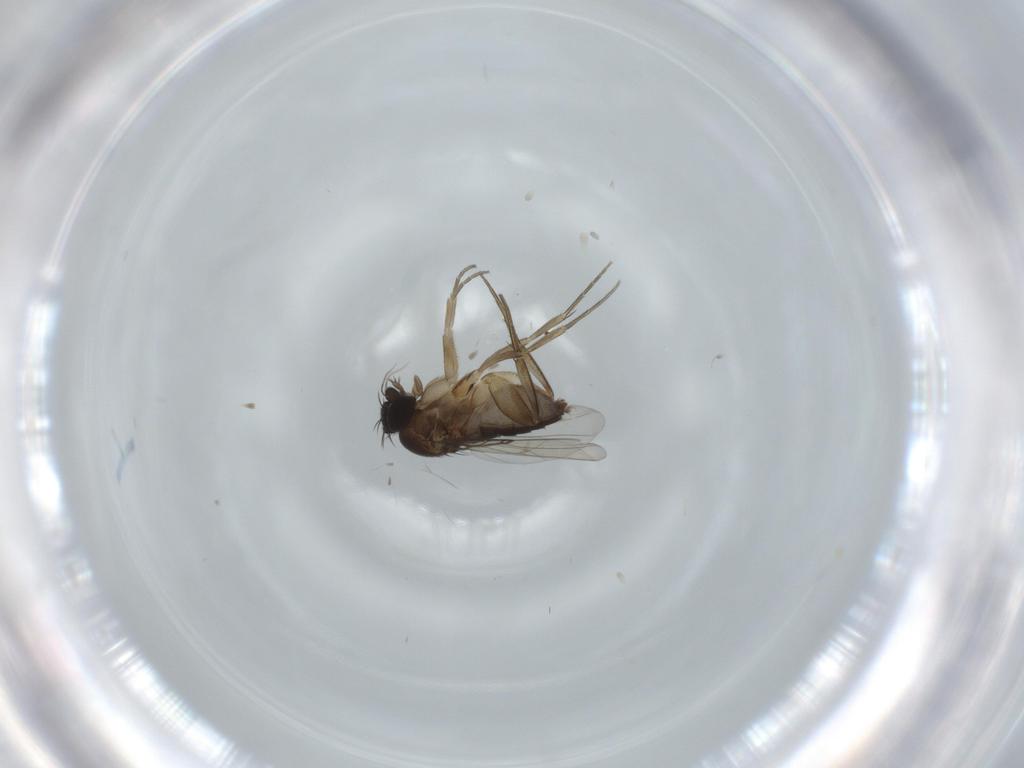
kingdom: Animalia
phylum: Arthropoda
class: Insecta
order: Diptera
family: Phoridae
